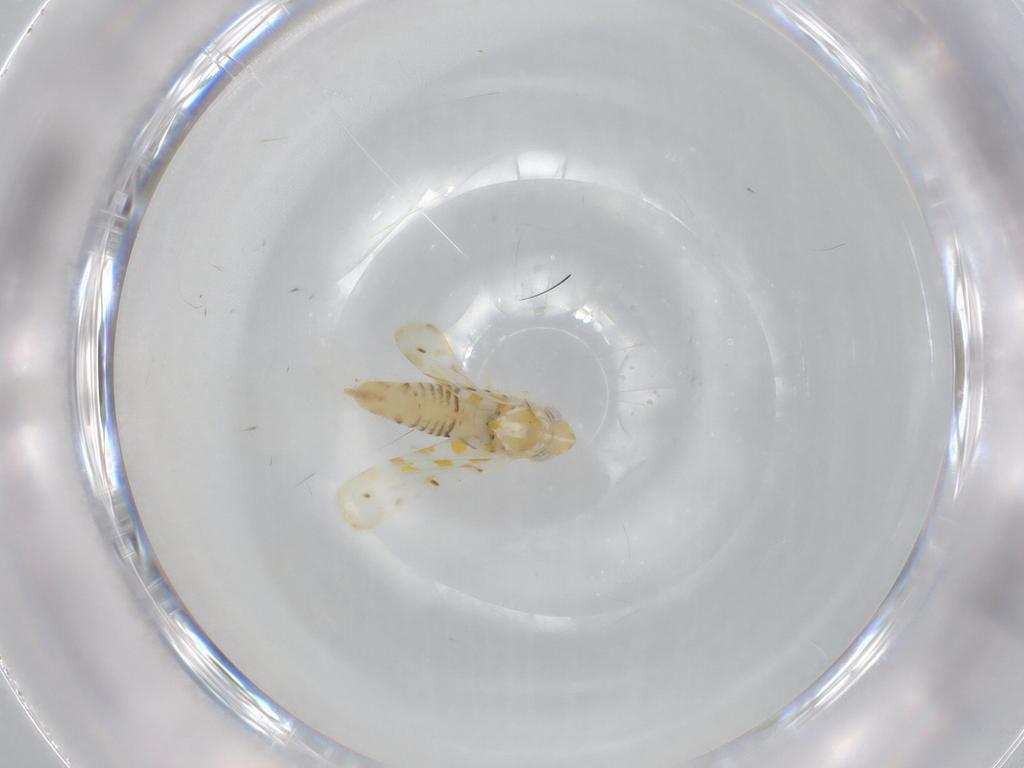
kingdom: Animalia
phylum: Arthropoda
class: Insecta
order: Hemiptera
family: Cicadellidae
